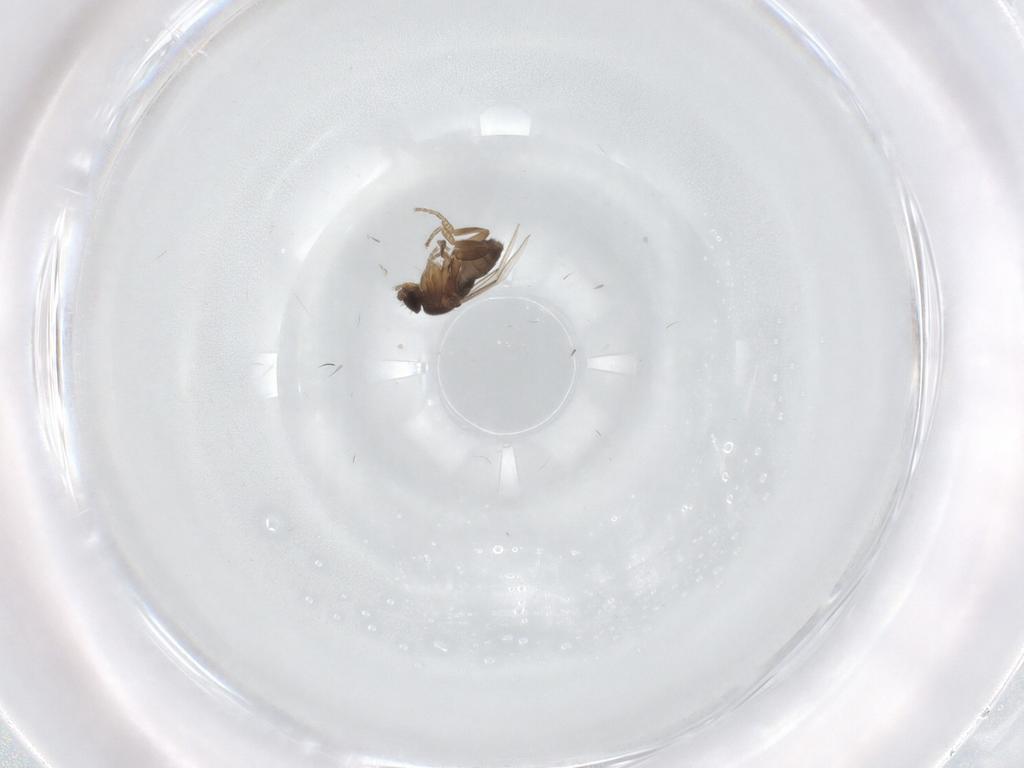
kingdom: Animalia
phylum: Arthropoda
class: Insecta
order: Diptera
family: Phoridae
